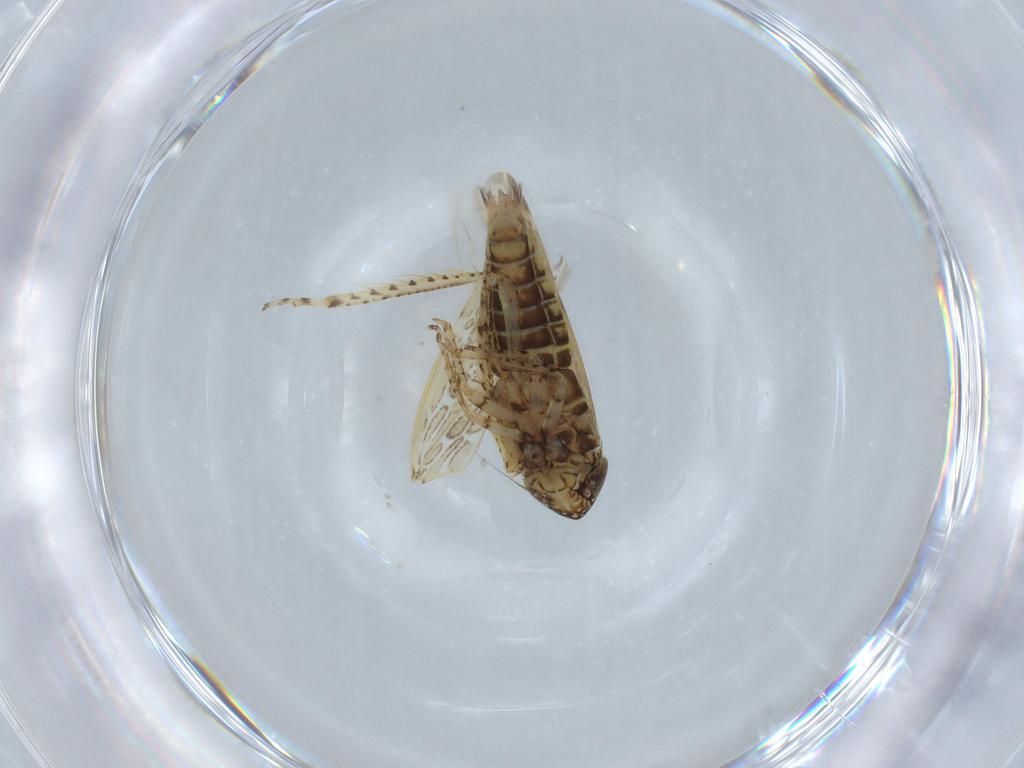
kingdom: Animalia
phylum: Arthropoda
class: Insecta
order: Hemiptera
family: Cicadellidae
